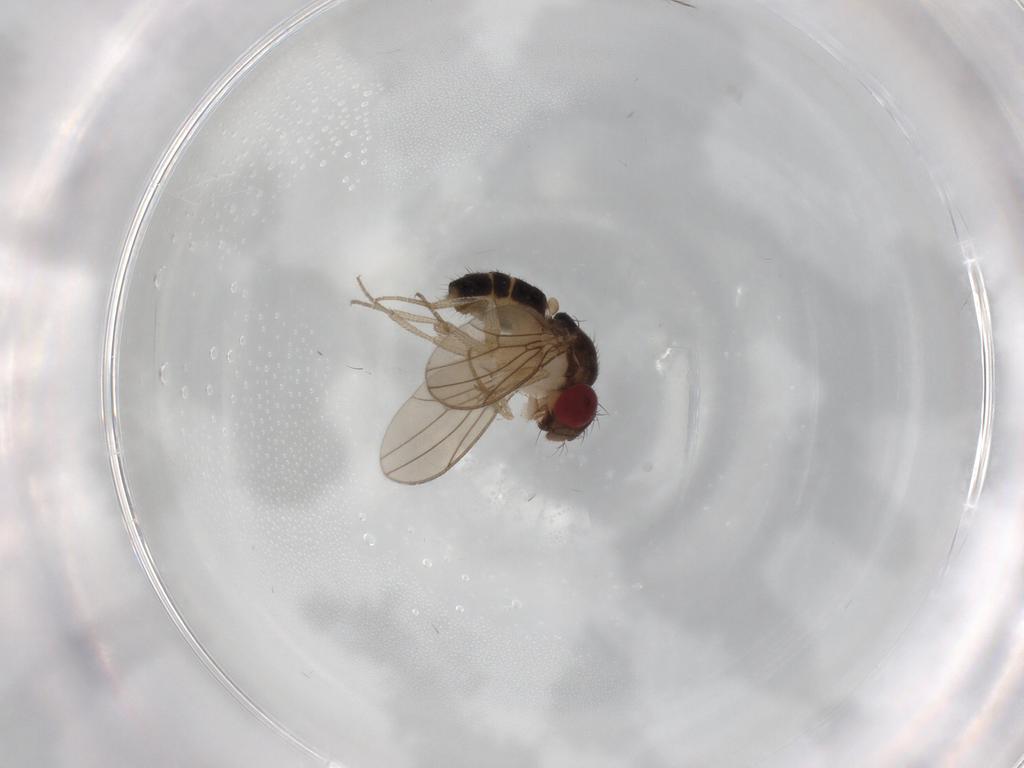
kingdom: Animalia
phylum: Arthropoda
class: Insecta
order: Diptera
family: Drosophilidae
